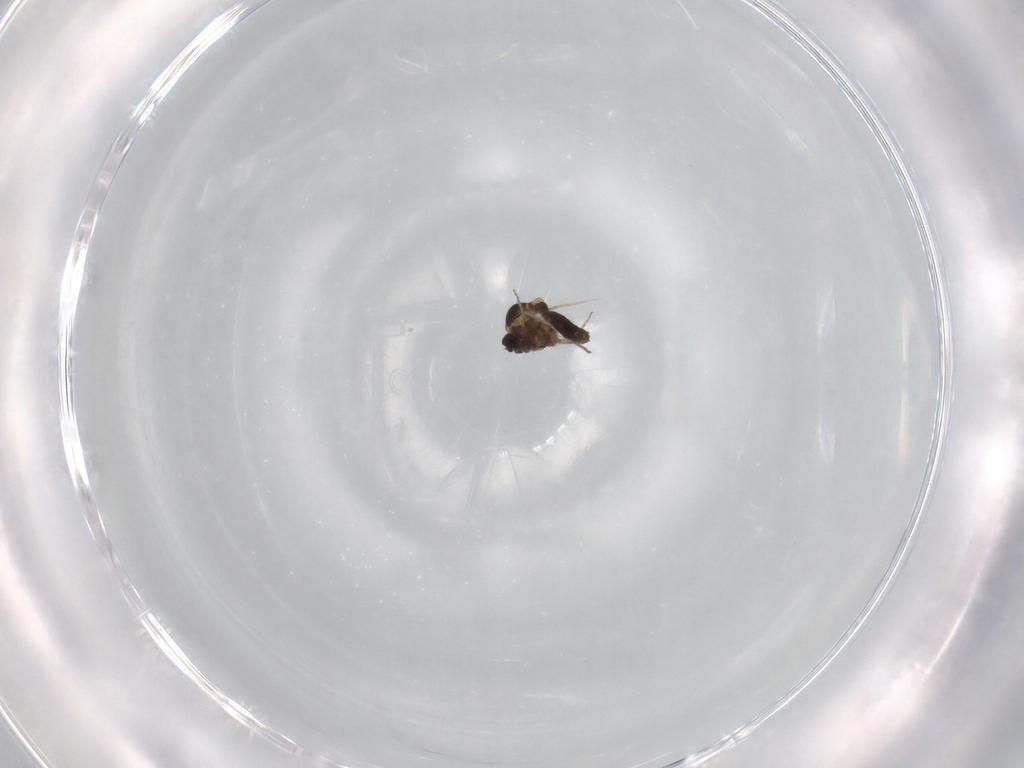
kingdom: Animalia
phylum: Arthropoda
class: Insecta
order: Diptera
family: Ceratopogonidae
